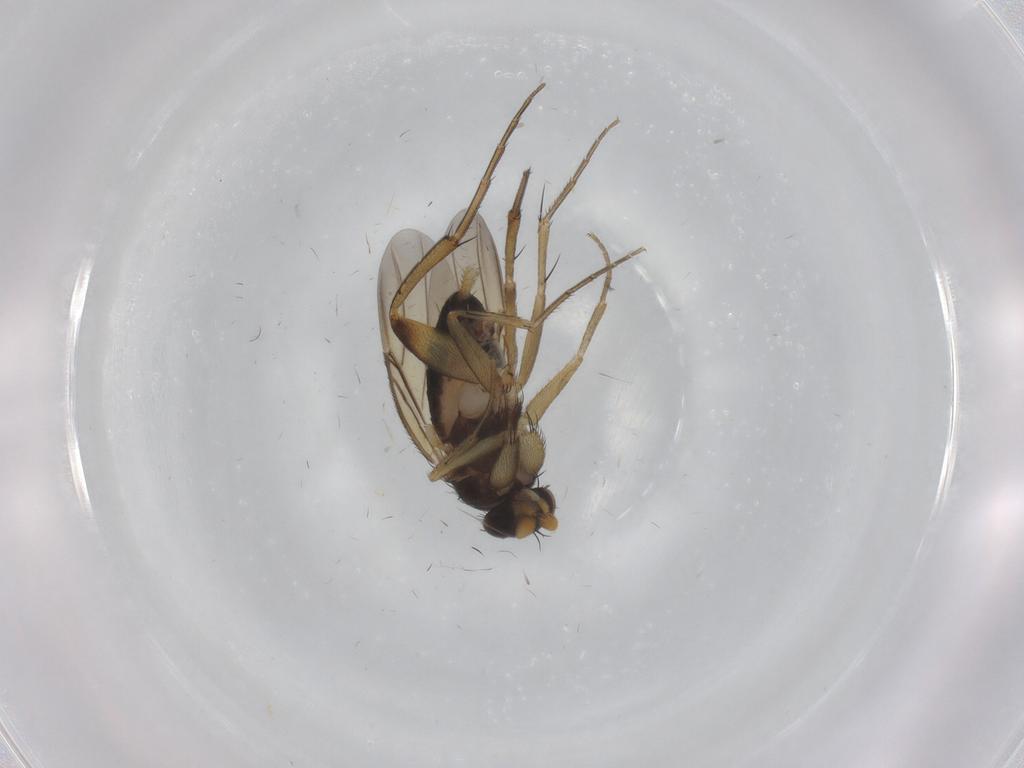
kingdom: Animalia
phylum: Arthropoda
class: Insecta
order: Diptera
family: Phoridae
